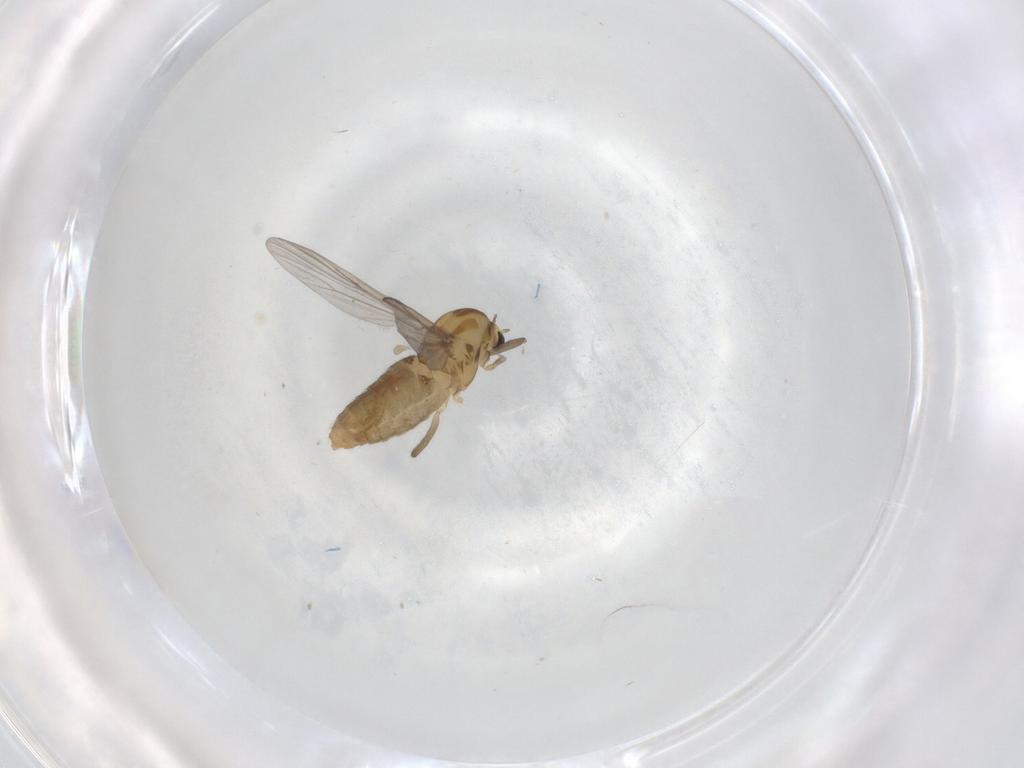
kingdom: Animalia
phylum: Arthropoda
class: Insecta
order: Diptera
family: Chironomidae
